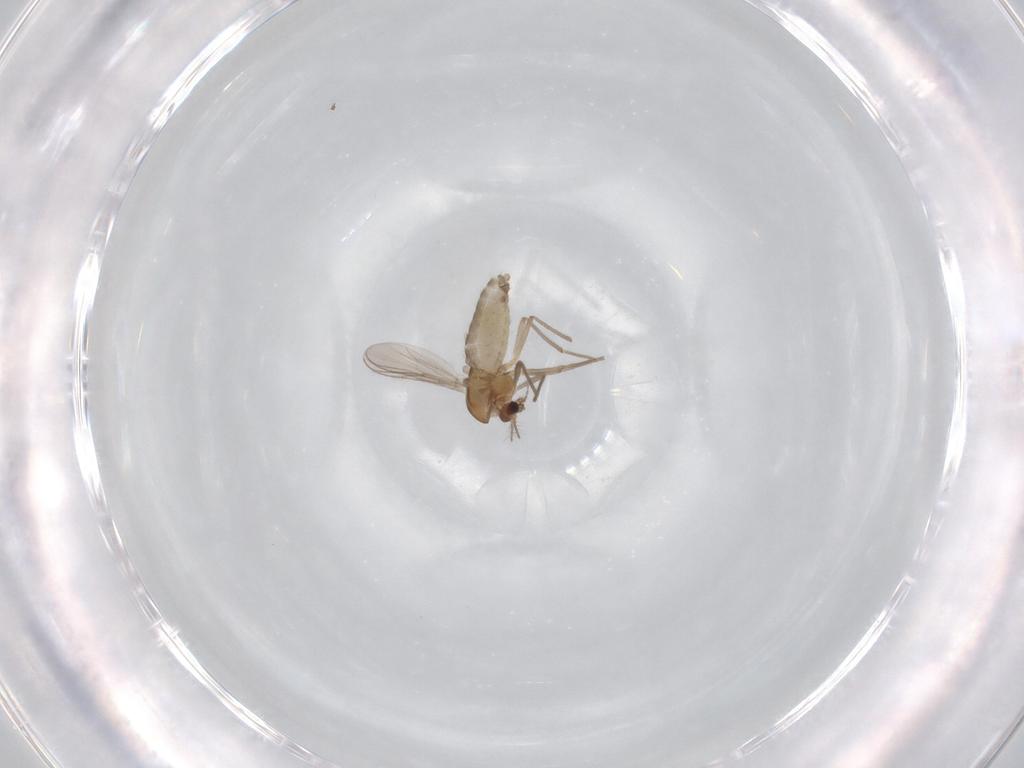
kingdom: Animalia
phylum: Arthropoda
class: Insecta
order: Diptera
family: Chironomidae
